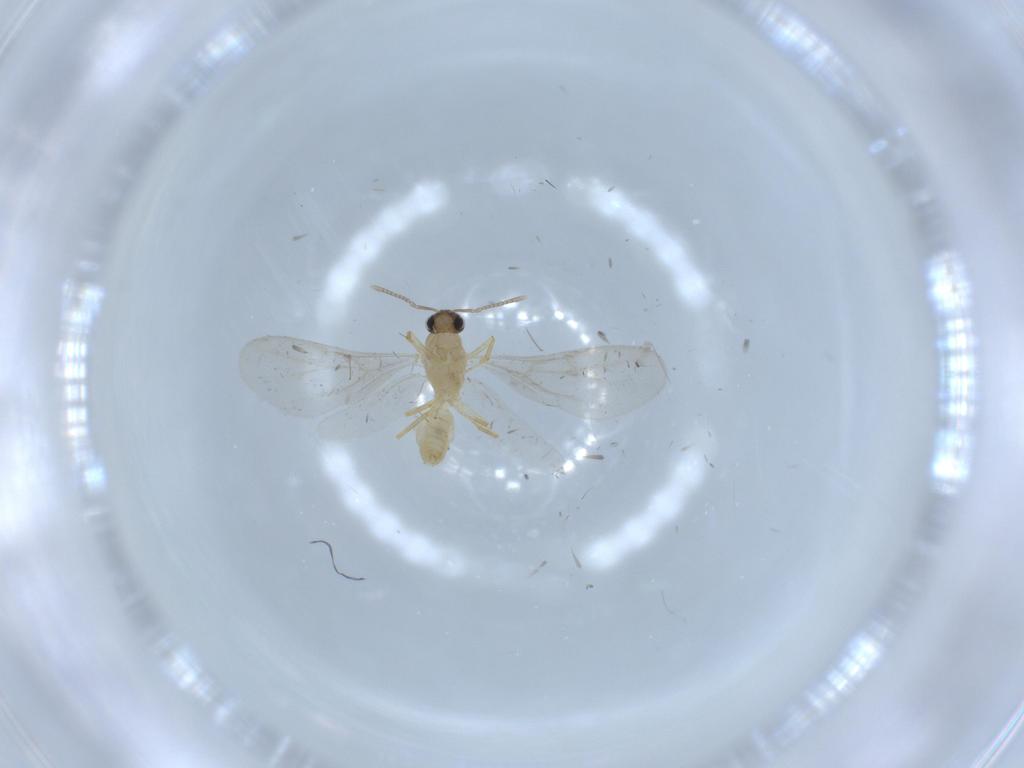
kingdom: Animalia
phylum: Arthropoda
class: Insecta
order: Hymenoptera
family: Formicidae
